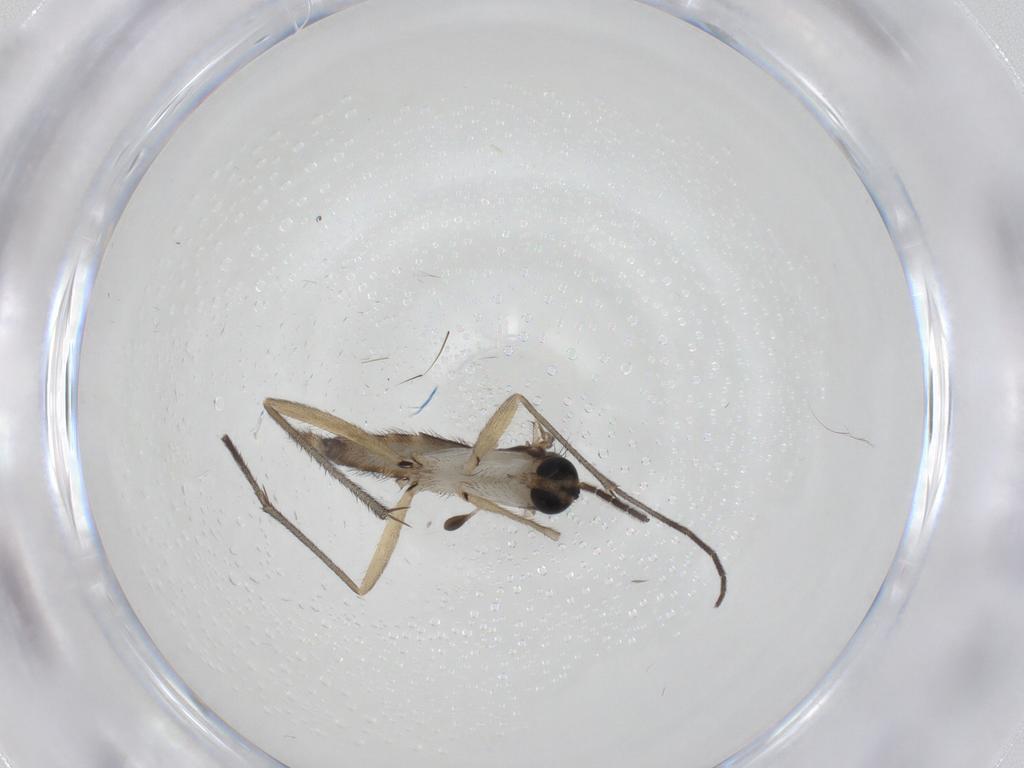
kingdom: Animalia
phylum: Arthropoda
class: Insecta
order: Diptera
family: Sciaridae
